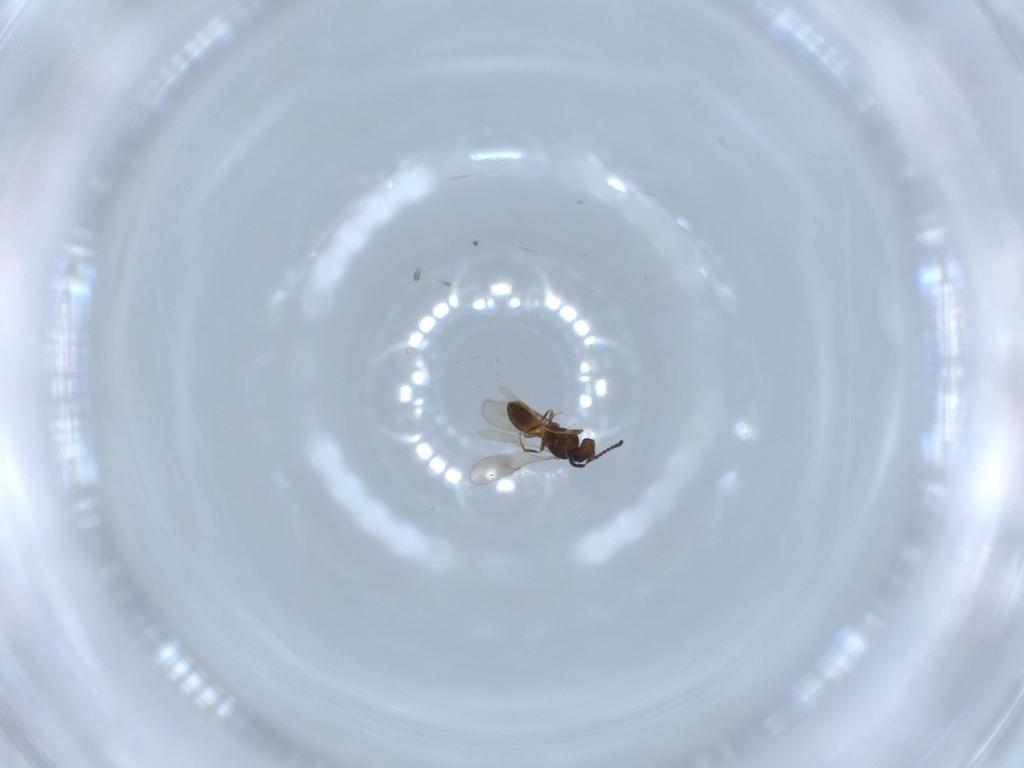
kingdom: Animalia
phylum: Arthropoda
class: Insecta
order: Hymenoptera
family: Scelionidae
